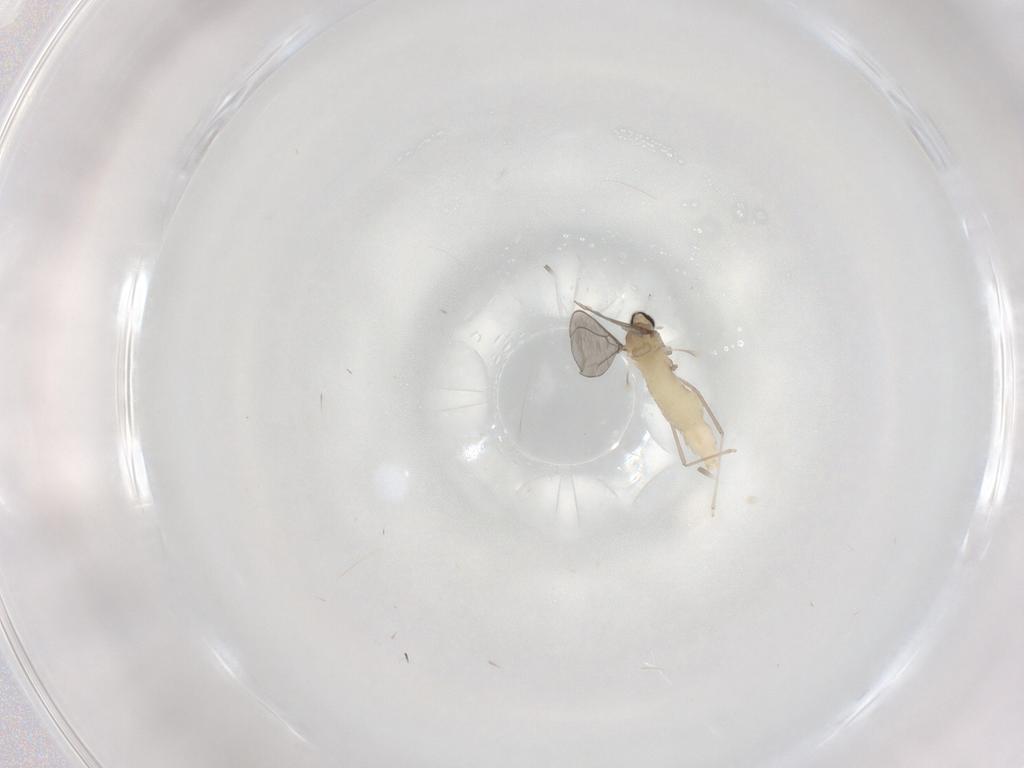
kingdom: Animalia
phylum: Arthropoda
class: Insecta
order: Diptera
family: Cecidomyiidae
